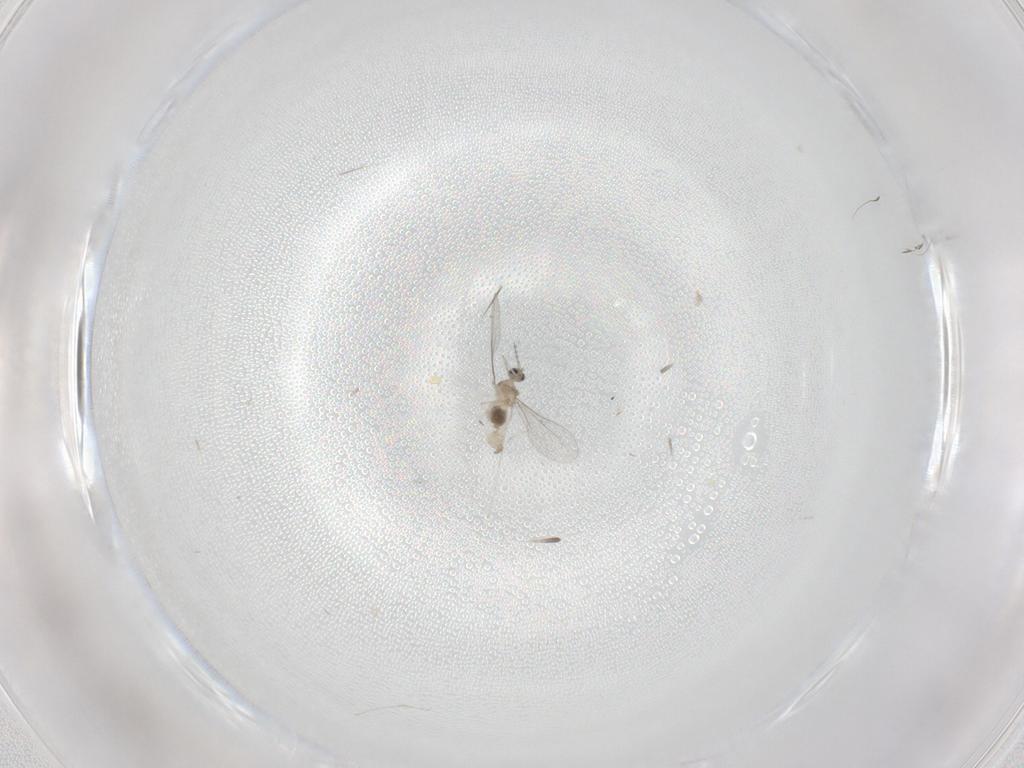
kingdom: Animalia
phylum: Arthropoda
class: Insecta
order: Diptera
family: Cecidomyiidae
